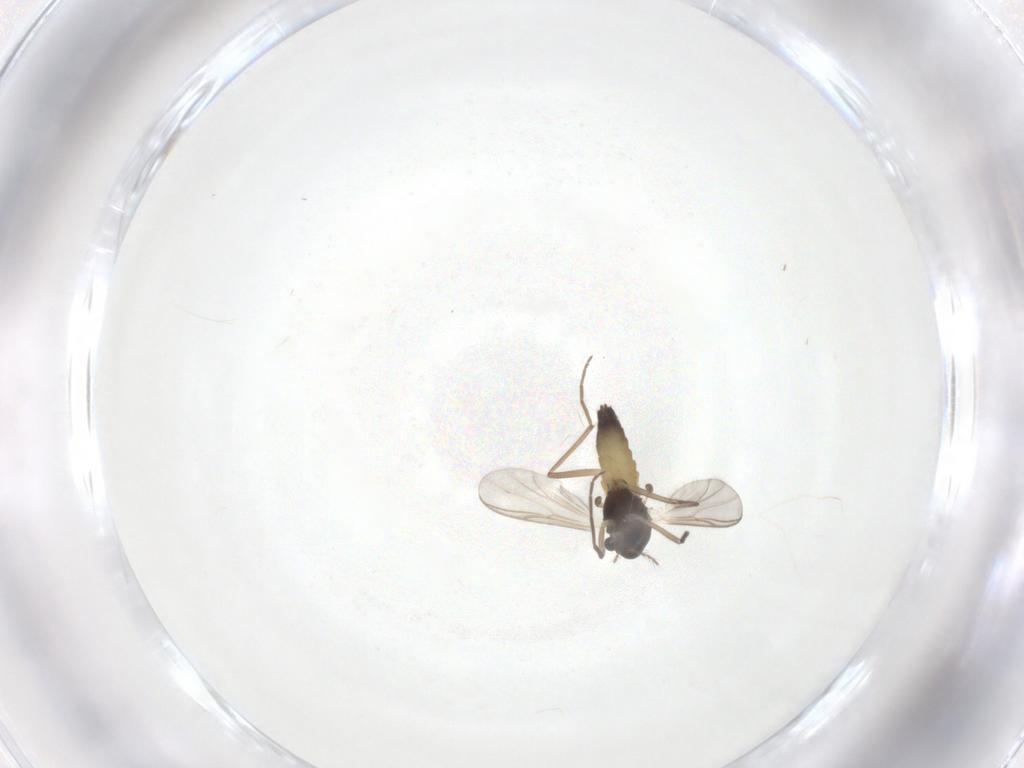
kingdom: Animalia
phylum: Arthropoda
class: Insecta
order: Diptera
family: Chironomidae
